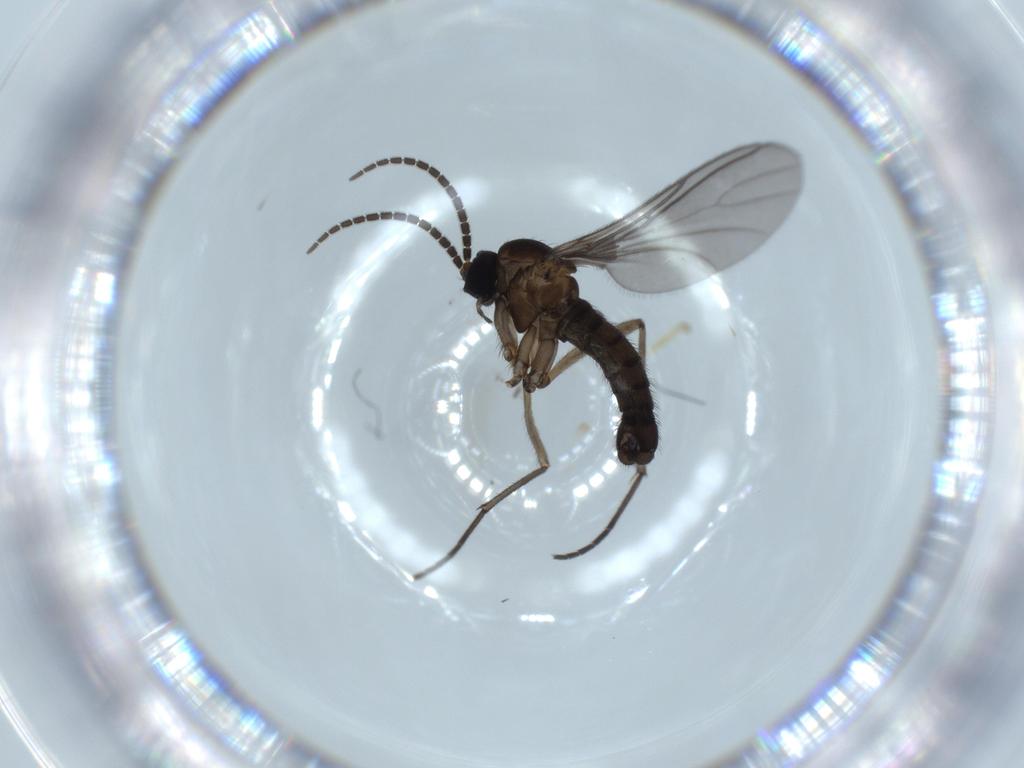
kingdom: Animalia
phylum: Arthropoda
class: Insecta
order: Diptera
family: Sciaridae
